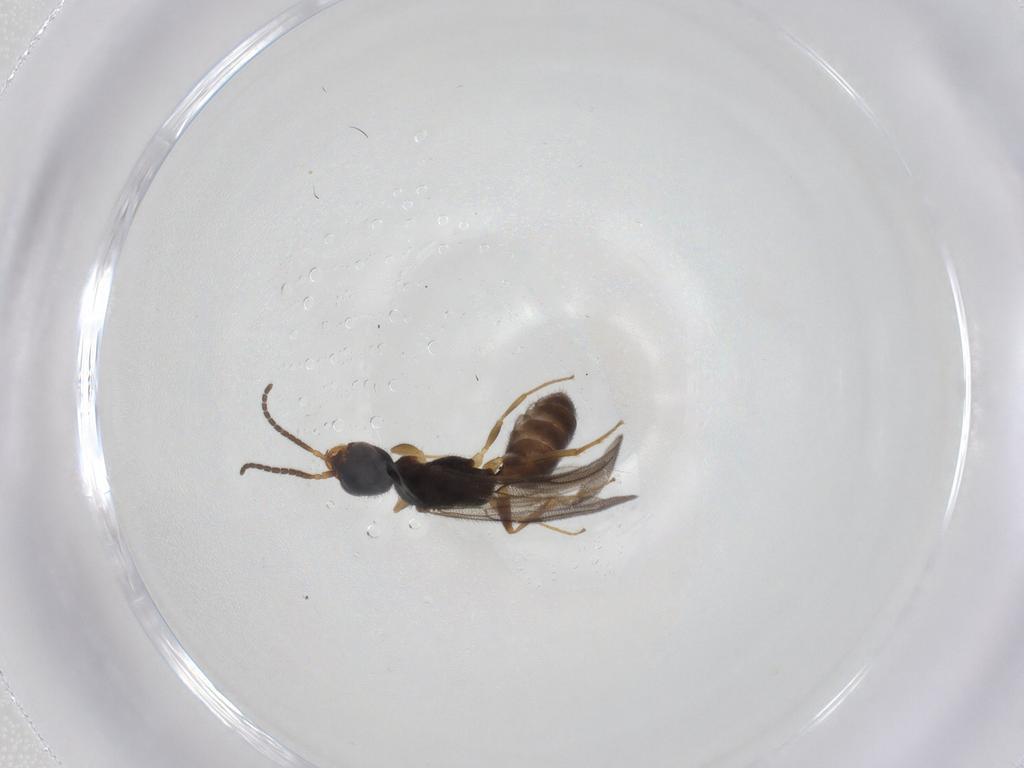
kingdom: Animalia
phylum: Arthropoda
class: Insecta
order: Hymenoptera
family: Bethylidae
